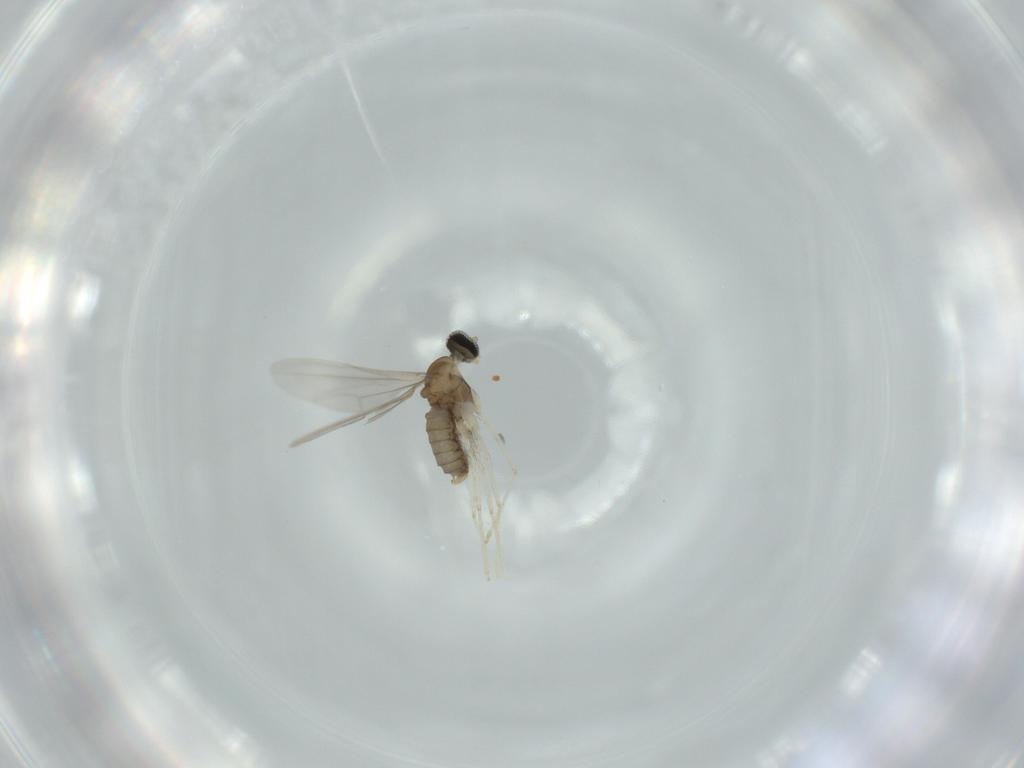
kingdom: Animalia
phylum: Arthropoda
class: Insecta
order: Diptera
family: Cecidomyiidae
